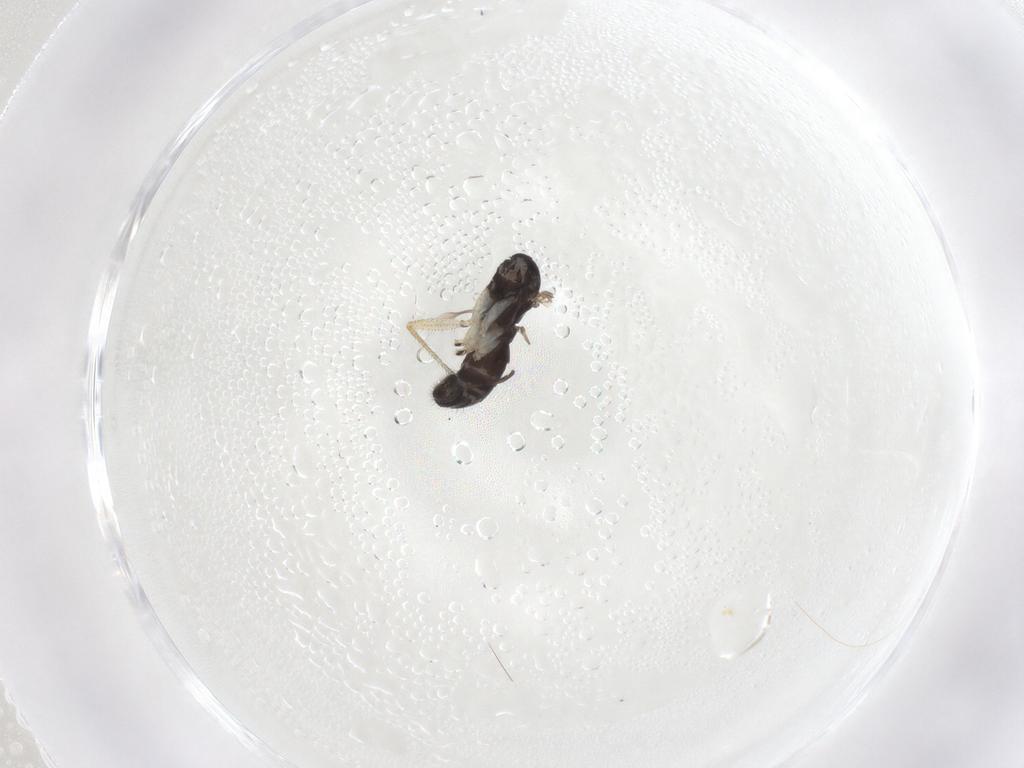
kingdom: Animalia
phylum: Arthropoda
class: Insecta
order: Diptera
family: Sciaridae
